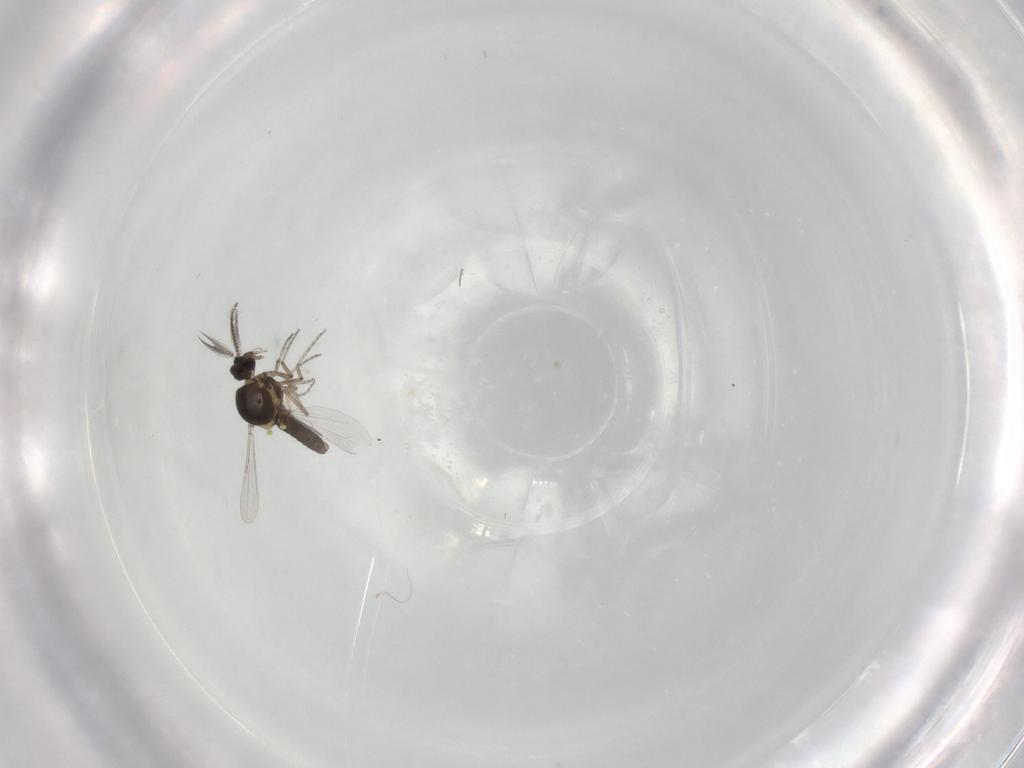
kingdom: Animalia
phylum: Arthropoda
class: Insecta
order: Diptera
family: Ceratopogonidae
